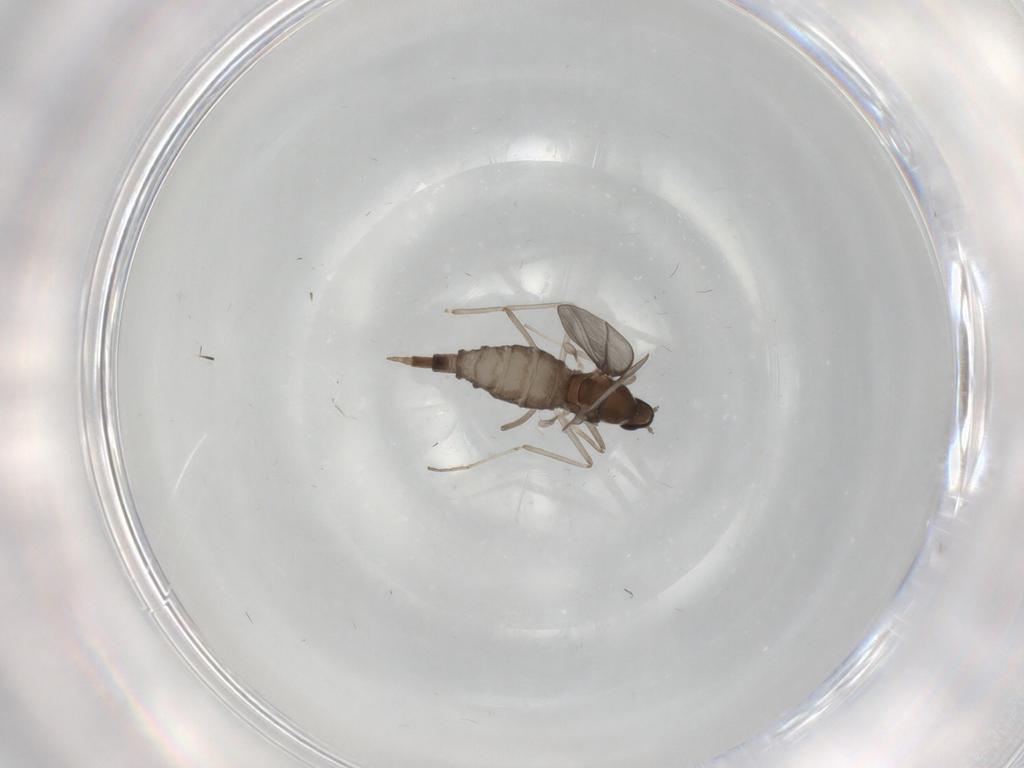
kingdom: Animalia
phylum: Arthropoda
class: Insecta
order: Diptera
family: Cecidomyiidae
